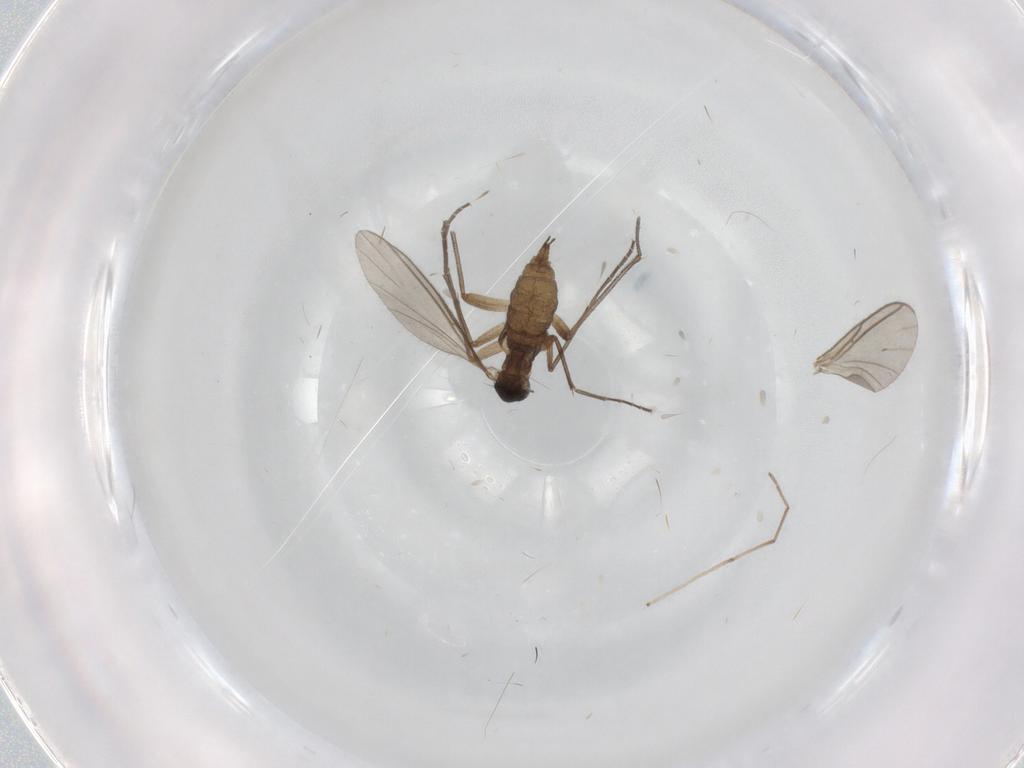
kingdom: Animalia
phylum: Arthropoda
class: Insecta
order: Diptera
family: Sciaridae
